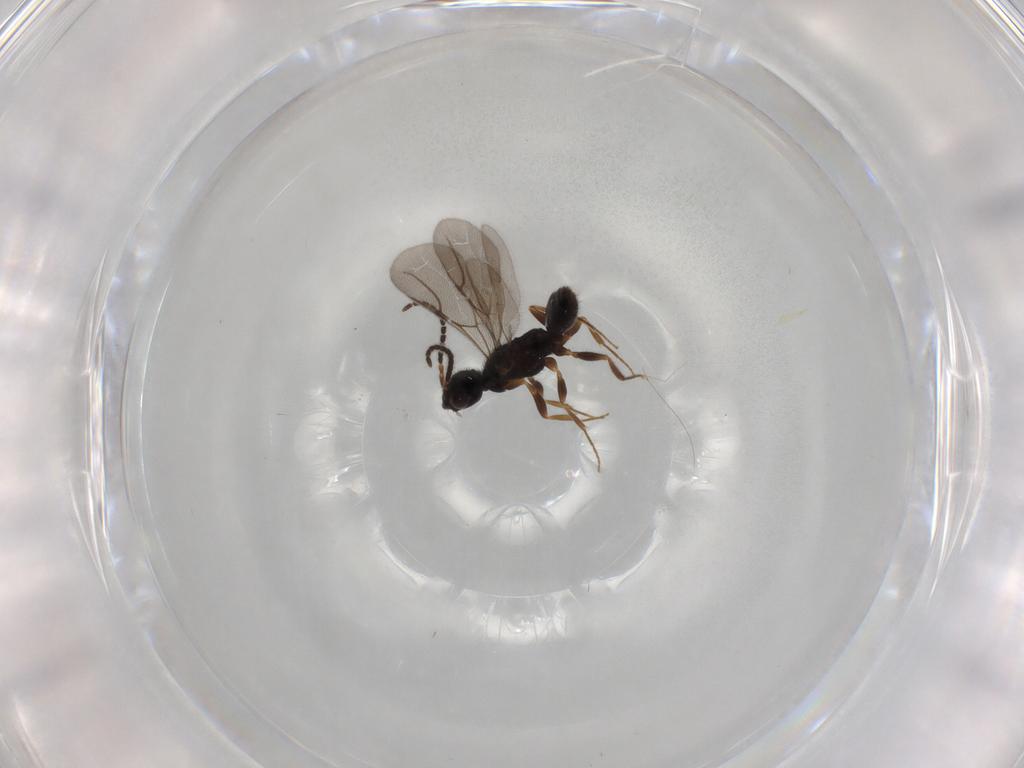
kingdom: Animalia
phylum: Arthropoda
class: Insecta
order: Hymenoptera
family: Bethylidae
